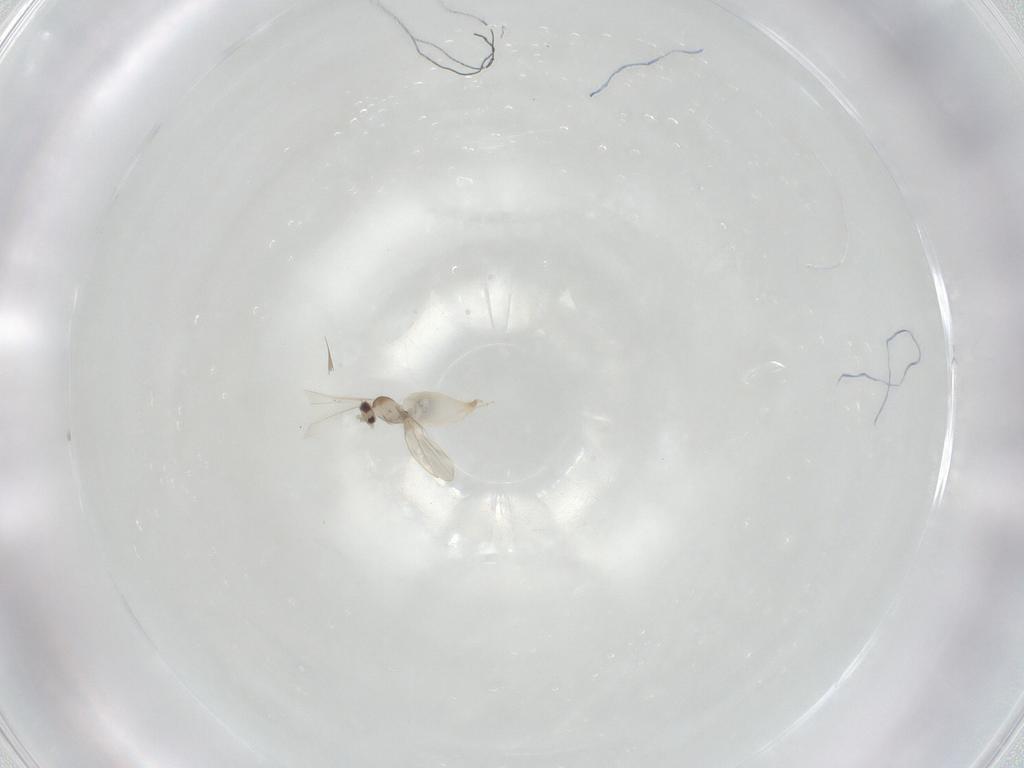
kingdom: Animalia
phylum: Arthropoda
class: Insecta
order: Diptera
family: Cecidomyiidae
